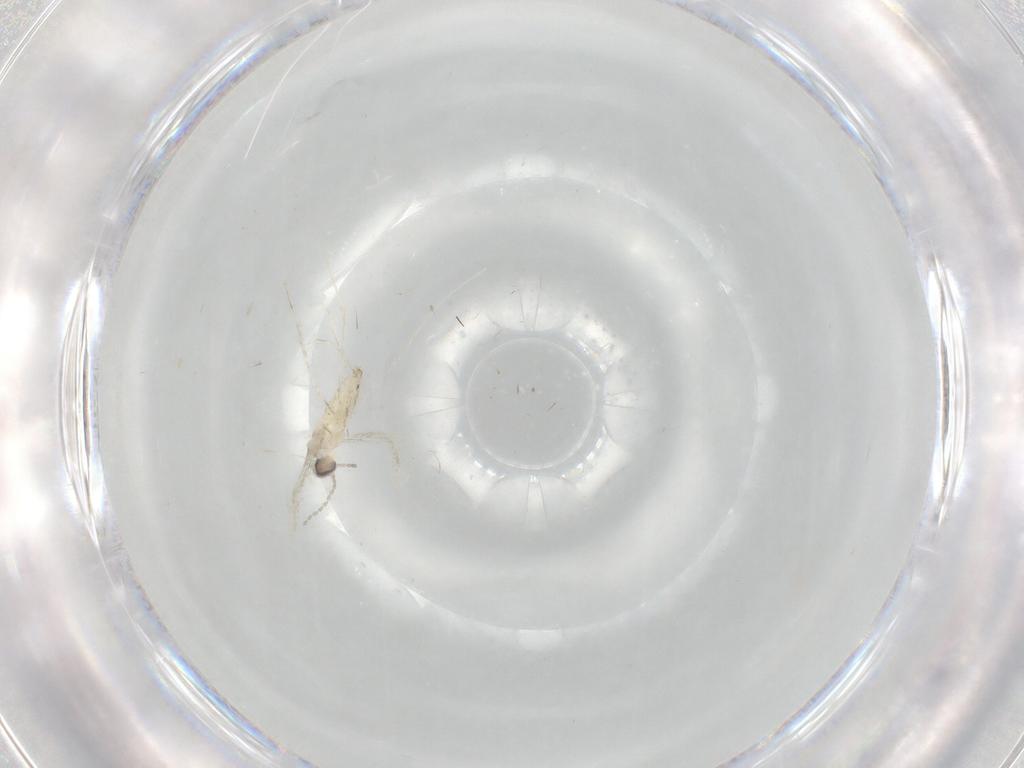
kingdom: Animalia
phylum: Arthropoda
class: Insecta
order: Diptera
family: Cecidomyiidae
